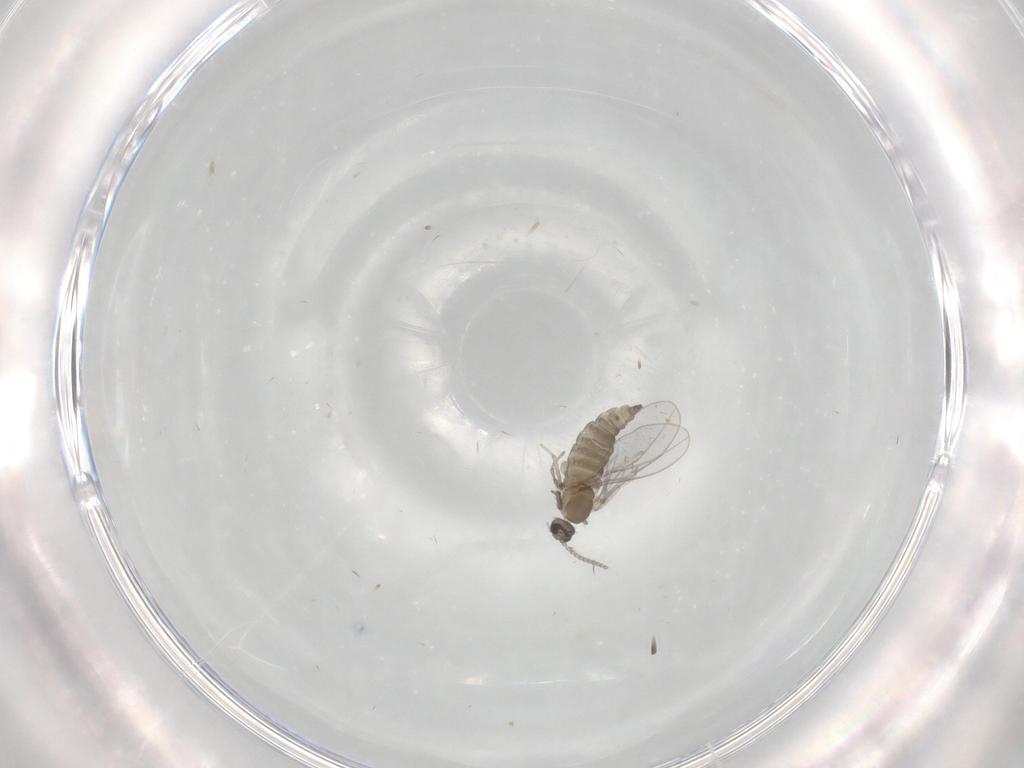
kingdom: Animalia
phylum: Arthropoda
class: Insecta
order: Diptera
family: Cecidomyiidae
